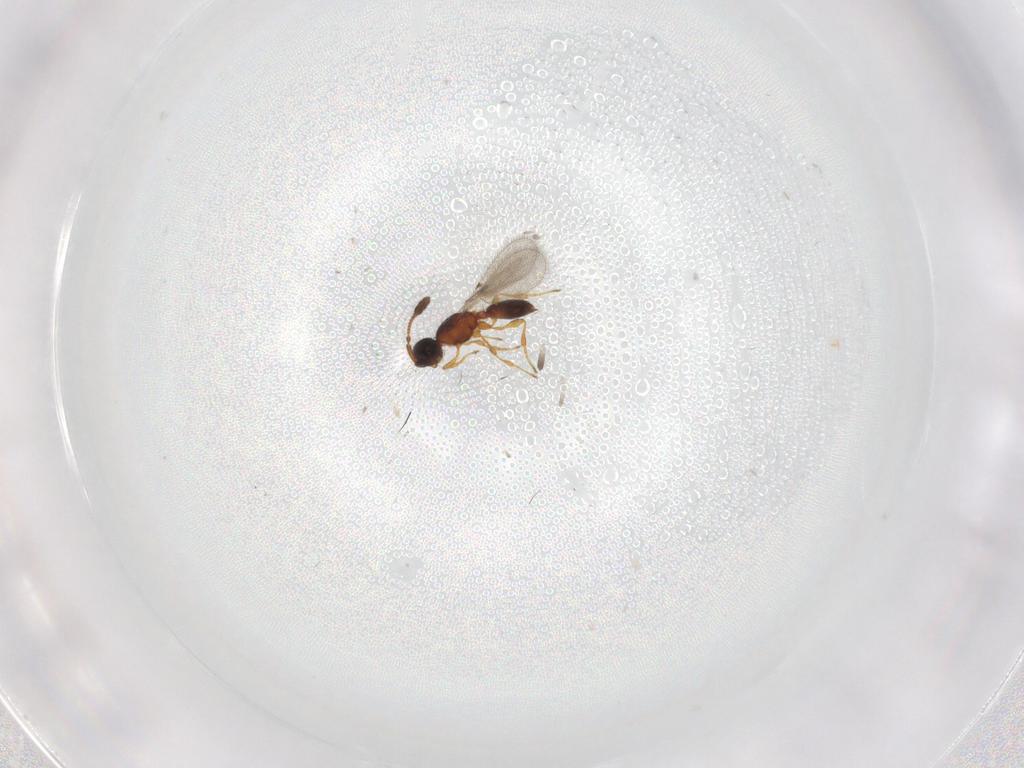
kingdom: Animalia
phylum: Arthropoda
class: Insecta
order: Hymenoptera
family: Diapriidae
